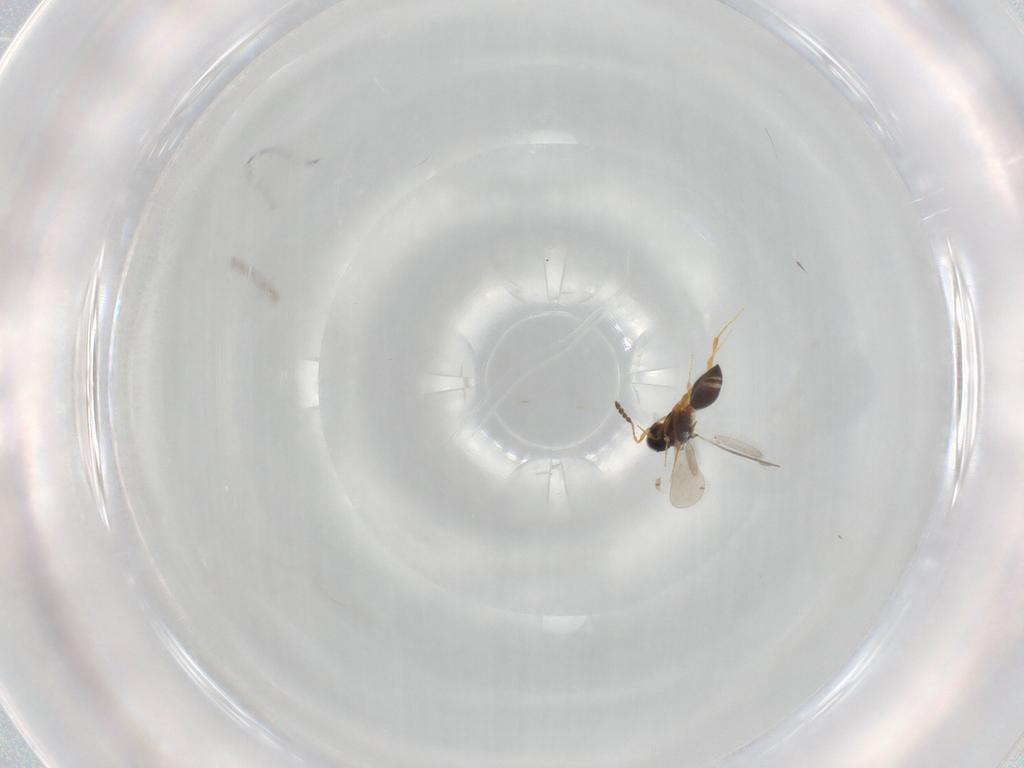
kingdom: Animalia
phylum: Arthropoda
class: Insecta
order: Hymenoptera
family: Platygastridae
